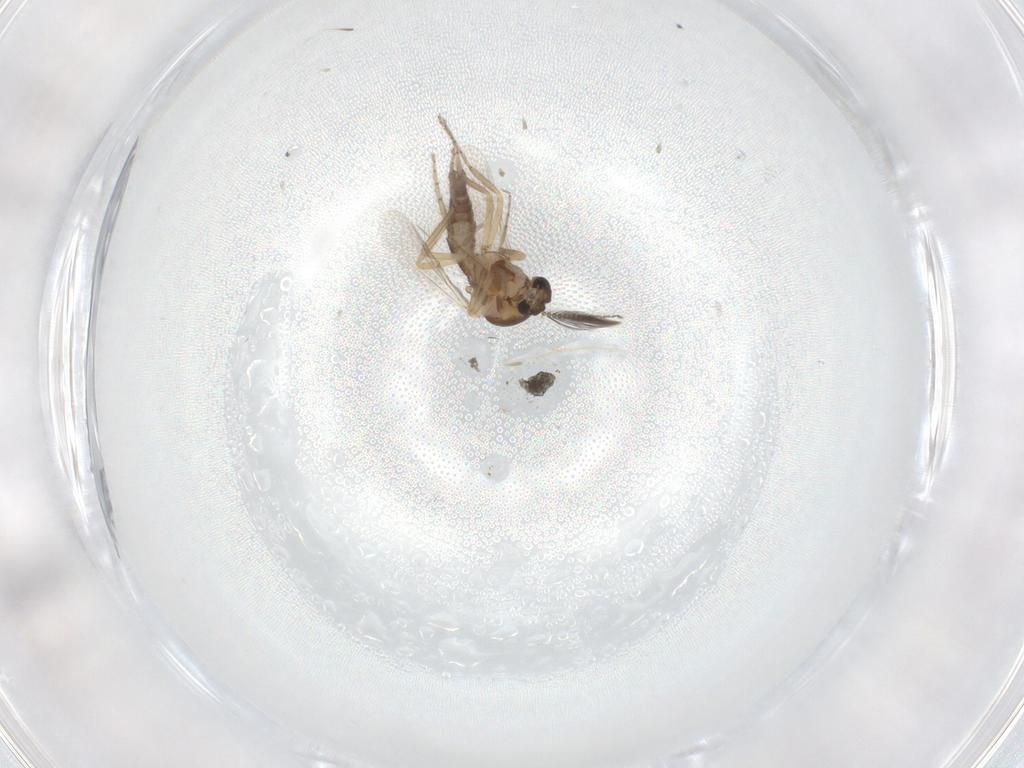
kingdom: Animalia
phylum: Arthropoda
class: Insecta
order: Diptera
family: Ceratopogonidae
